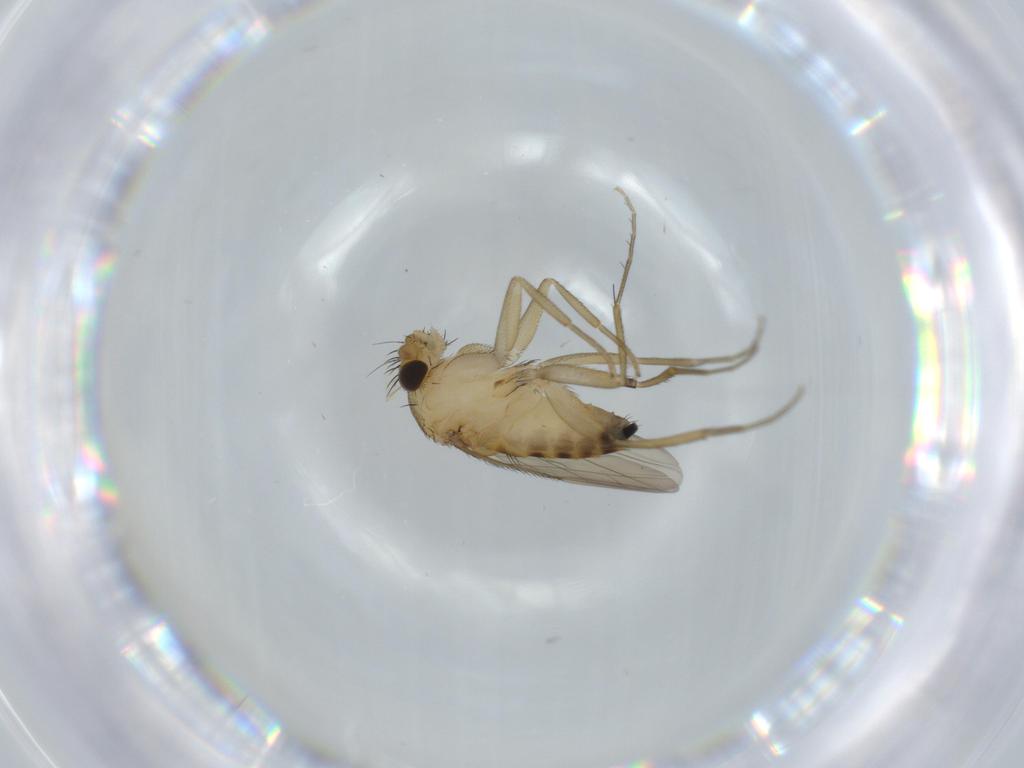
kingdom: Animalia
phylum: Arthropoda
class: Insecta
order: Diptera
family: Phoridae
